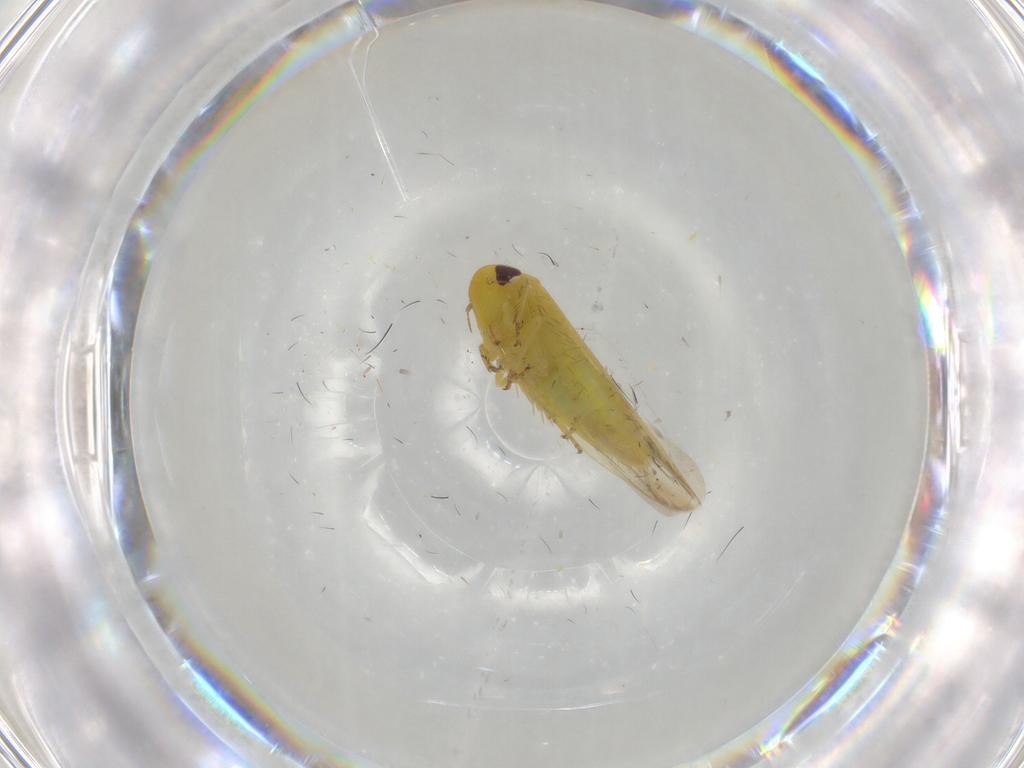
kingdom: Animalia
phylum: Arthropoda
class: Insecta
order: Hemiptera
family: Cicadellidae
